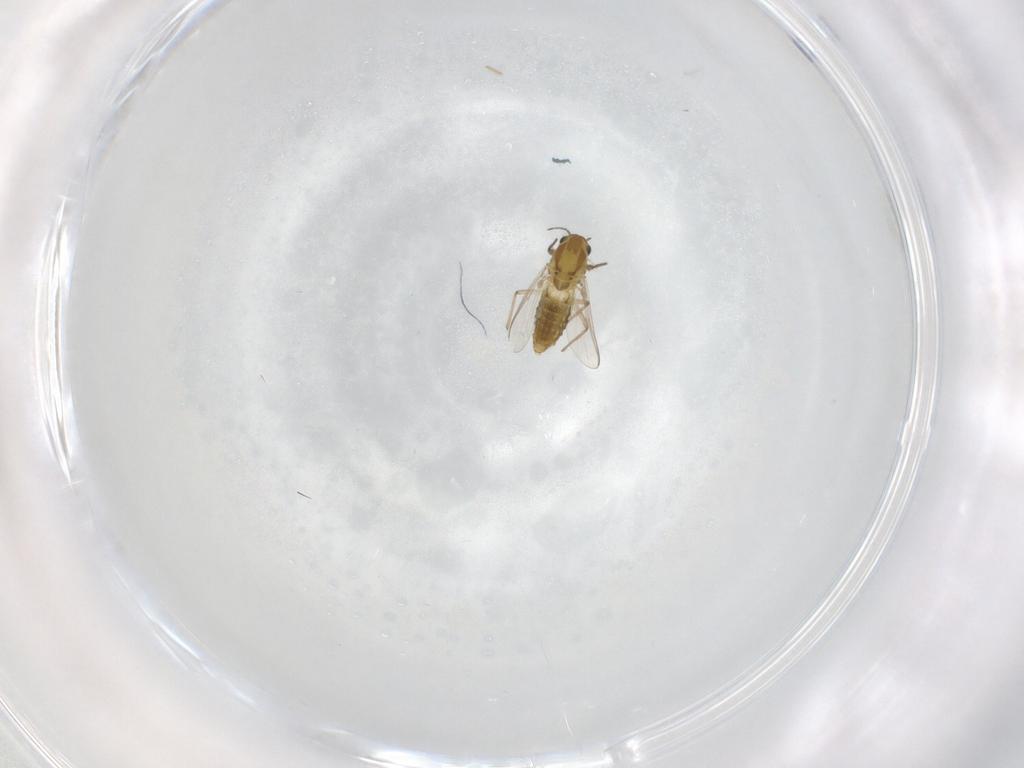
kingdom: Animalia
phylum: Arthropoda
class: Insecta
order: Diptera
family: Chironomidae
